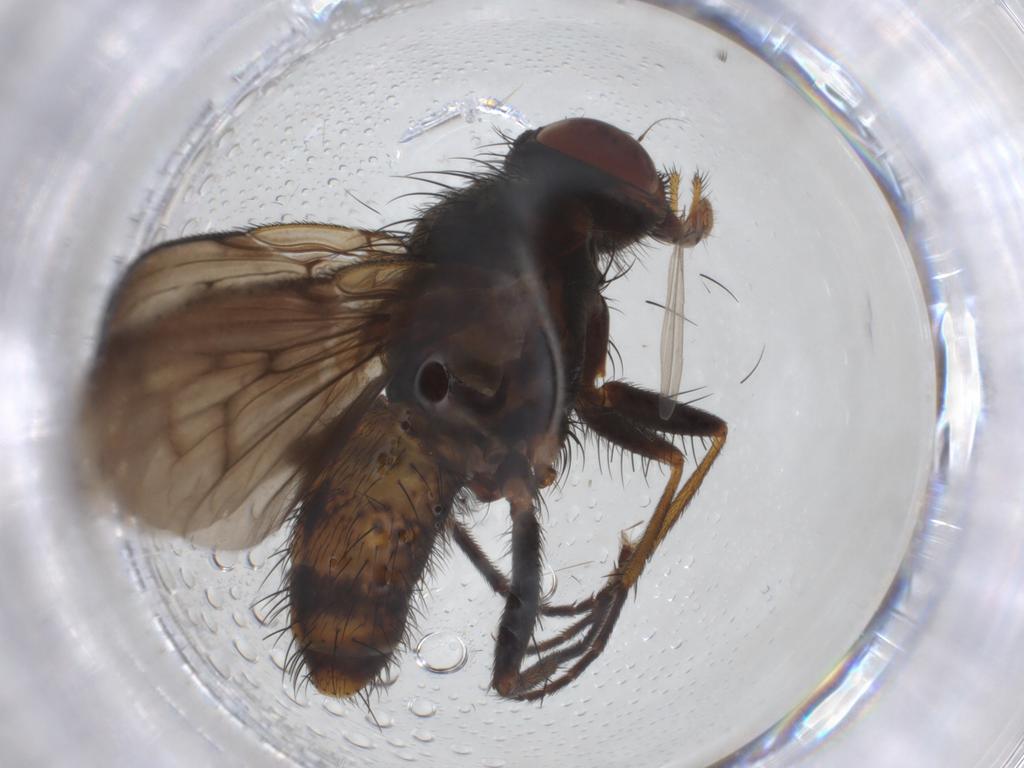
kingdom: Animalia
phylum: Arthropoda
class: Insecta
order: Diptera
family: Muscidae
